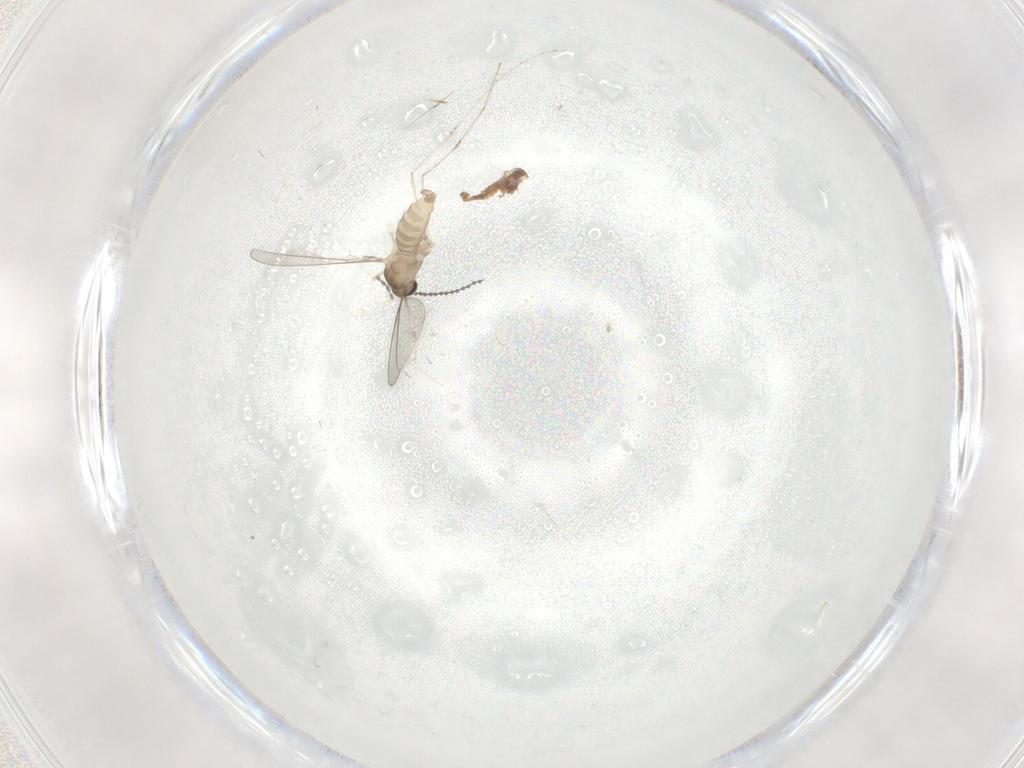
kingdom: Animalia
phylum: Arthropoda
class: Insecta
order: Diptera
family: Cecidomyiidae
